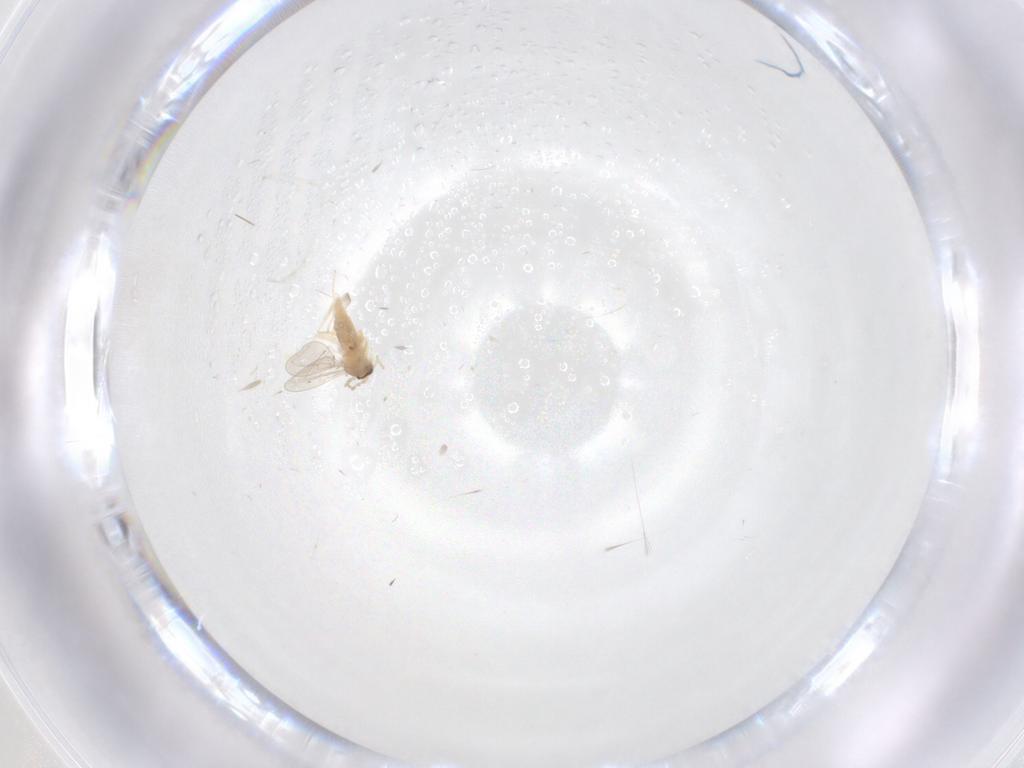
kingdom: Animalia
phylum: Arthropoda
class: Insecta
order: Diptera
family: Cecidomyiidae
